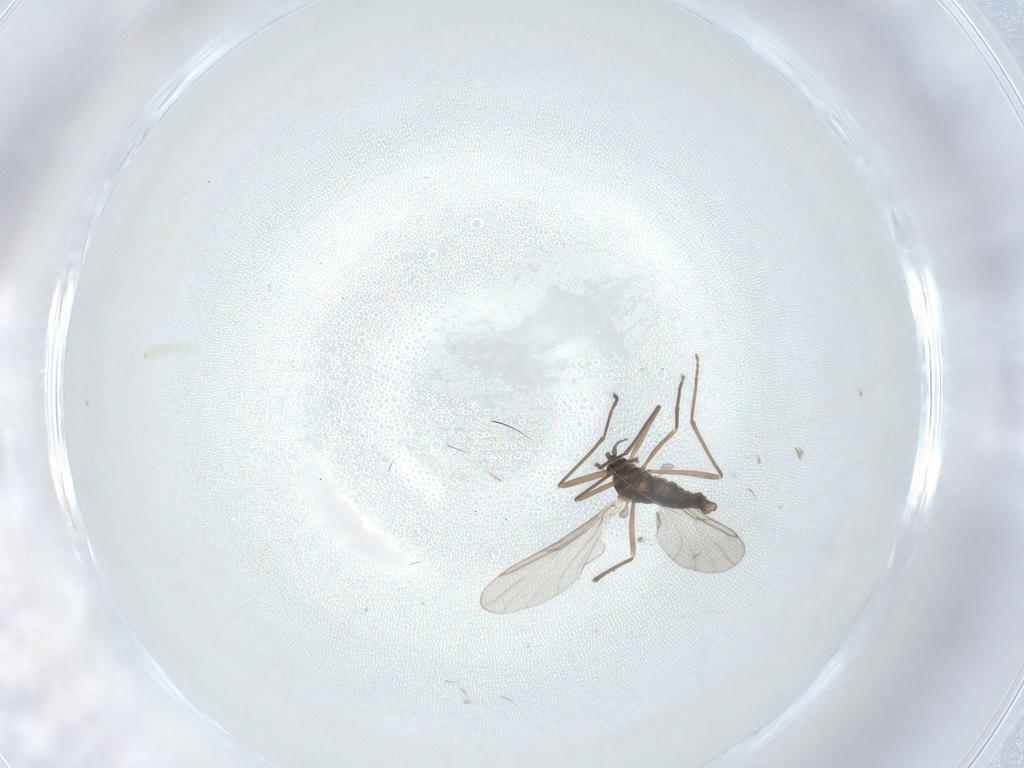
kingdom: Animalia
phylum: Arthropoda
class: Insecta
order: Diptera
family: Cecidomyiidae
